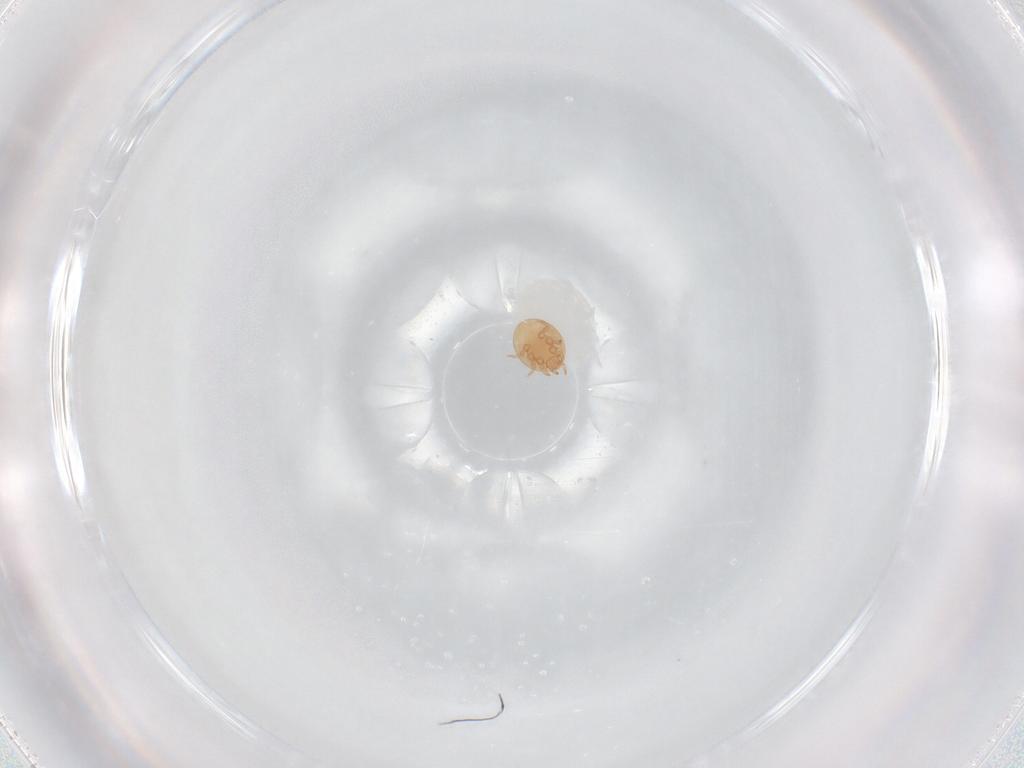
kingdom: Animalia
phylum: Arthropoda
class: Arachnida
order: Mesostigmata
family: Trematuridae
